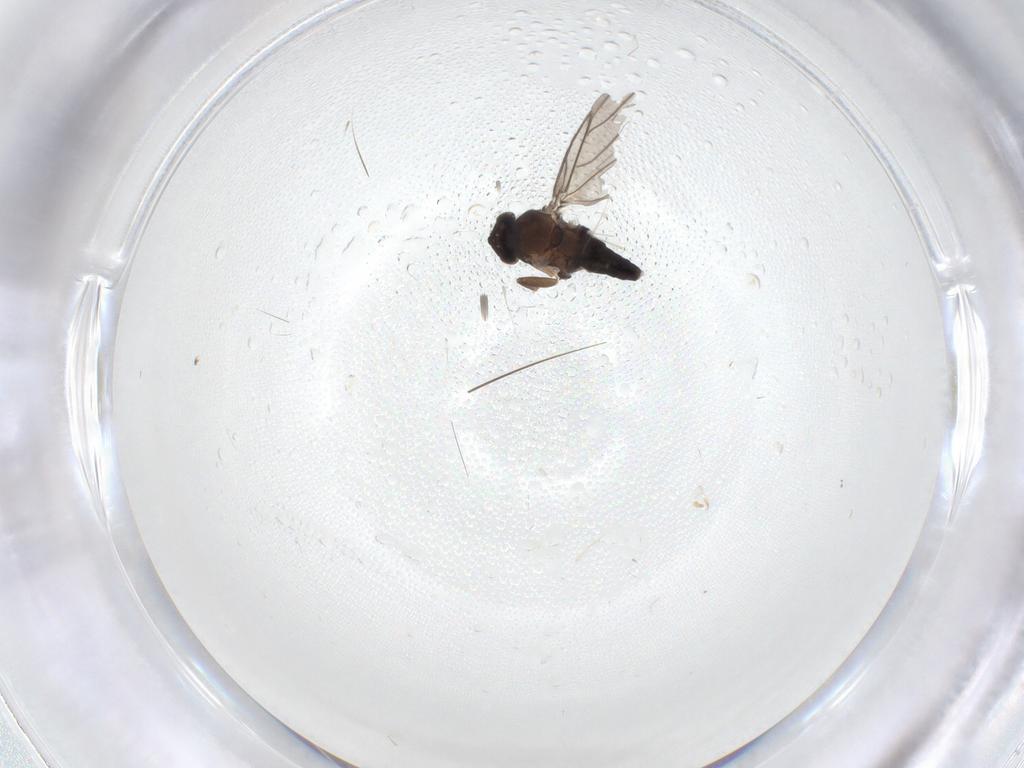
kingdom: Animalia
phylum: Arthropoda
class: Insecta
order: Diptera
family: Cecidomyiidae
